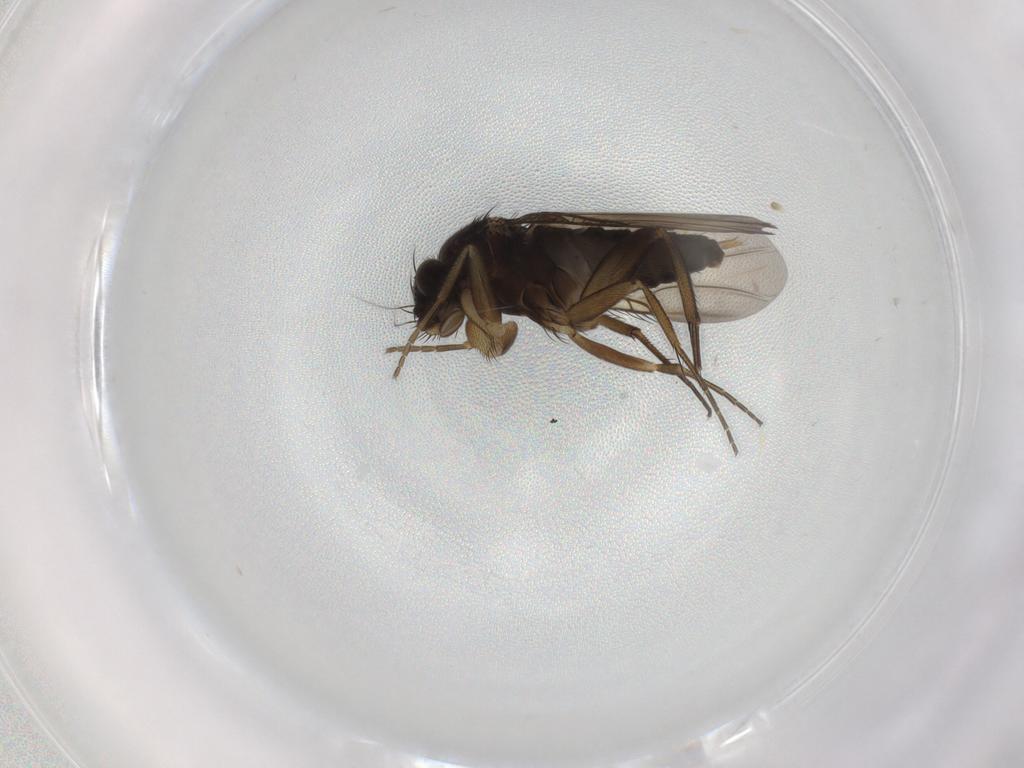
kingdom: Animalia
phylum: Arthropoda
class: Insecta
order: Diptera
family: Phoridae
